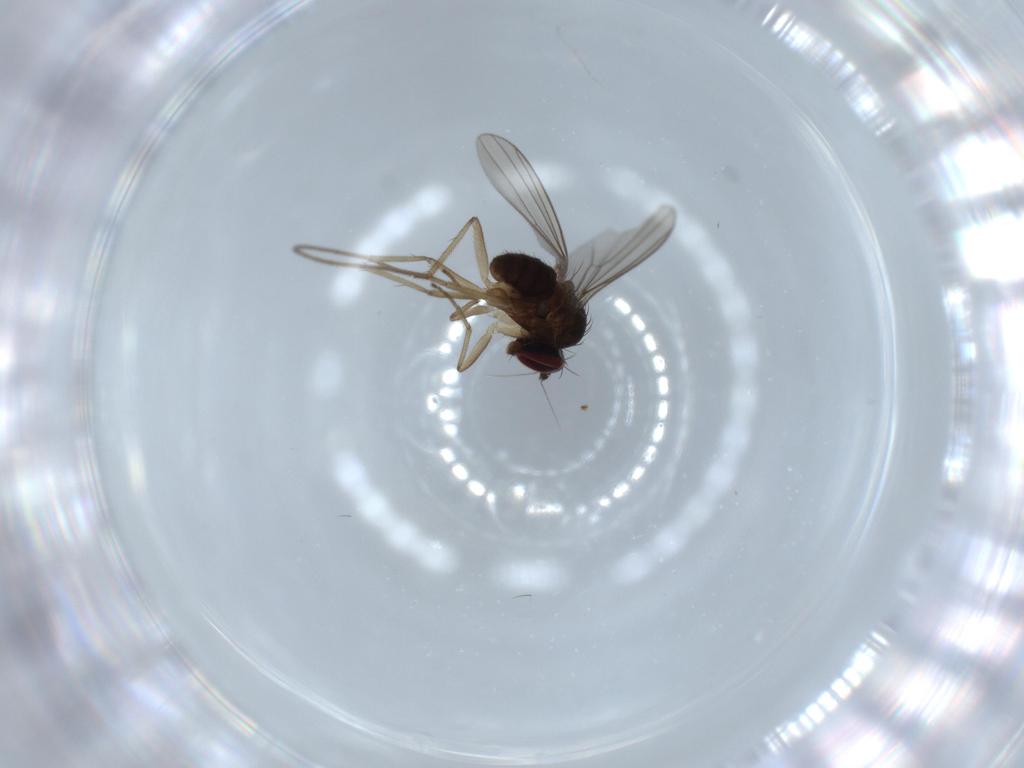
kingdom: Animalia
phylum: Arthropoda
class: Insecta
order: Diptera
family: Dolichopodidae
